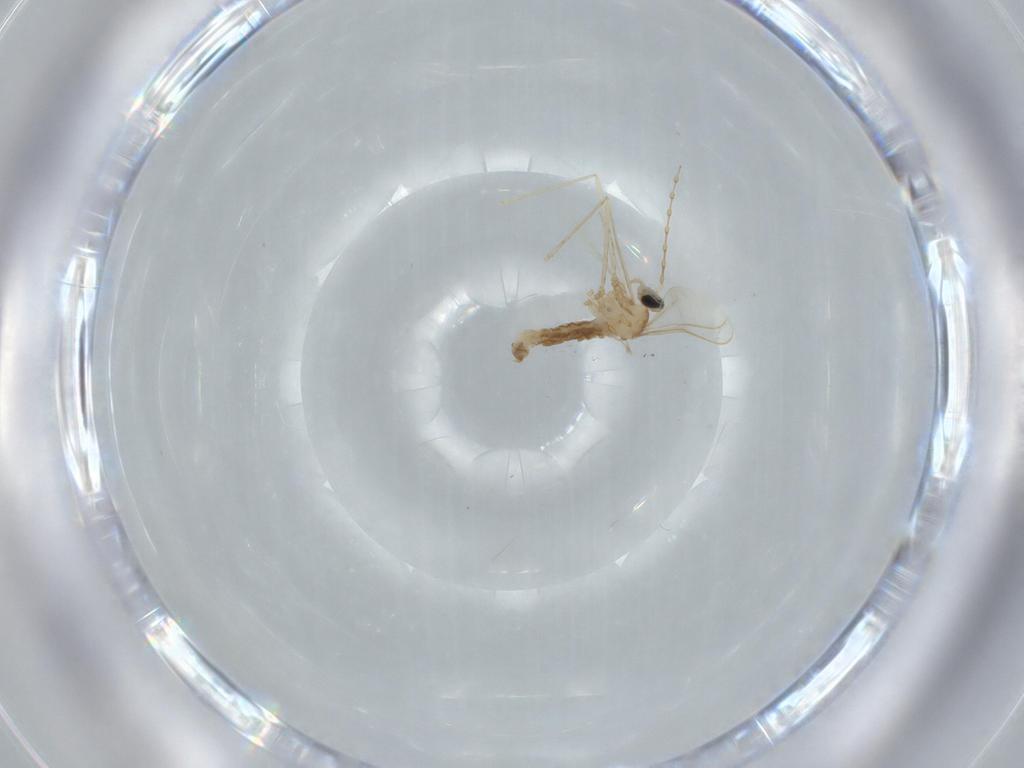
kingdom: Animalia
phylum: Arthropoda
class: Insecta
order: Diptera
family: Cecidomyiidae
